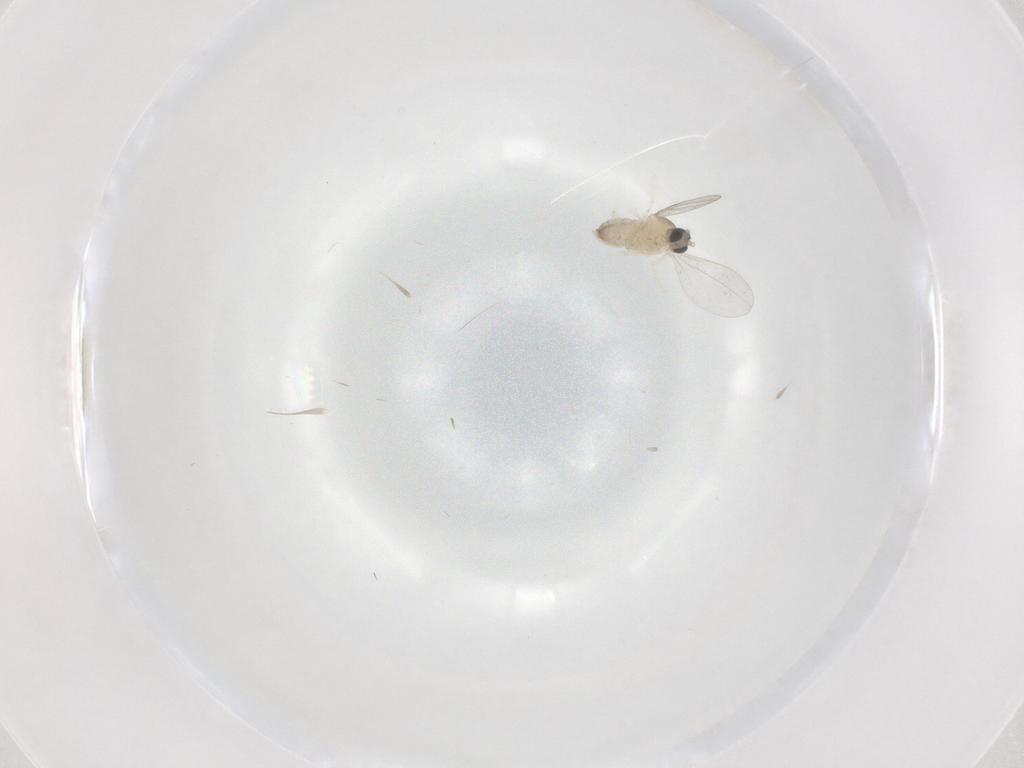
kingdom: Animalia
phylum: Arthropoda
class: Insecta
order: Diptera
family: Cecidomyiidae
